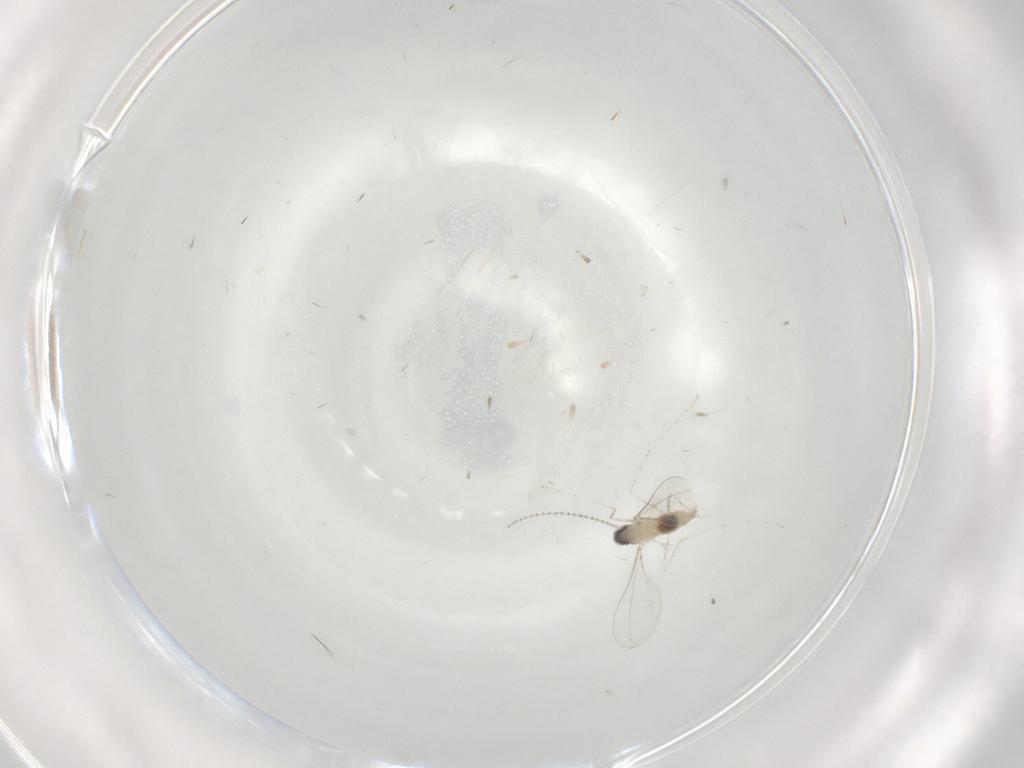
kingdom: Animalia
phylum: Arthropoda
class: Insecta
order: Diptera
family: Cecidomyiidae
